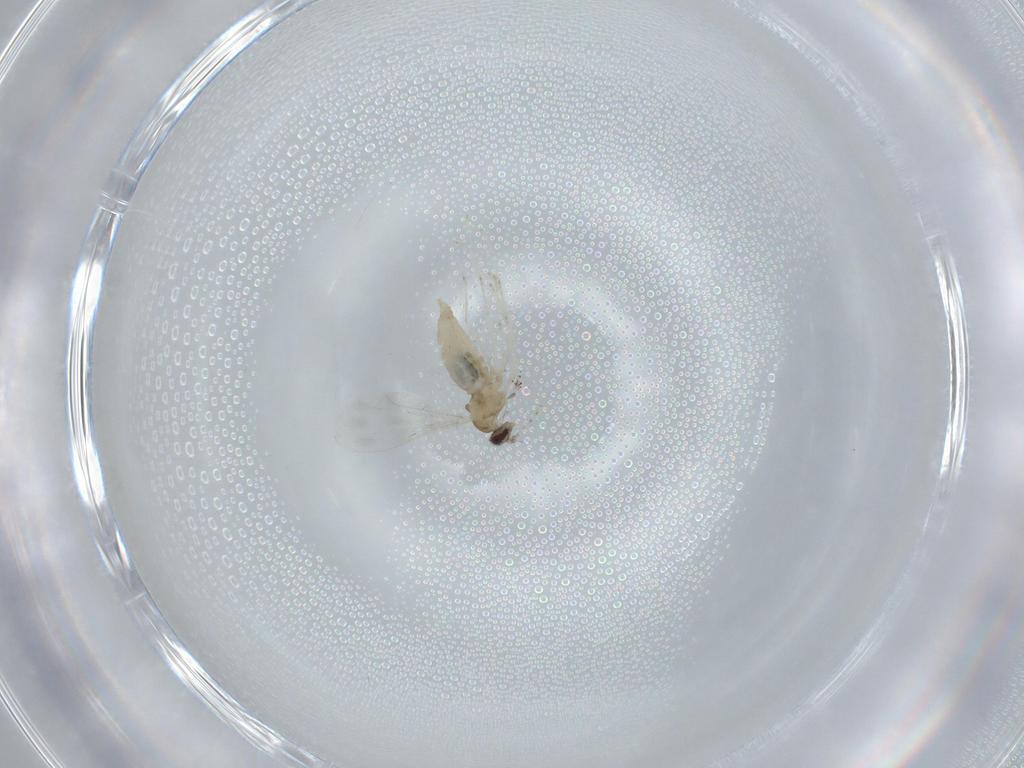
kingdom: Animalia
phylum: Arthropoda
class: Insecta
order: Diptera
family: Cecidomyiidae
